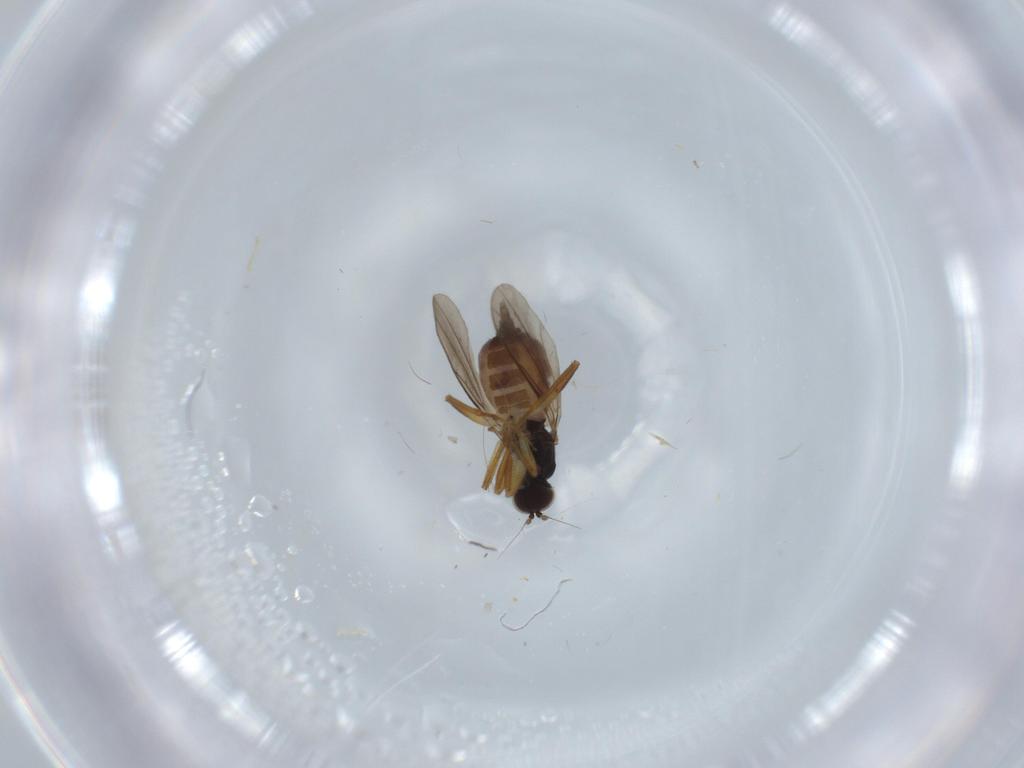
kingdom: Animalia
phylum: Arthropoda
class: Insecta
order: Diptera
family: Hybotidae
